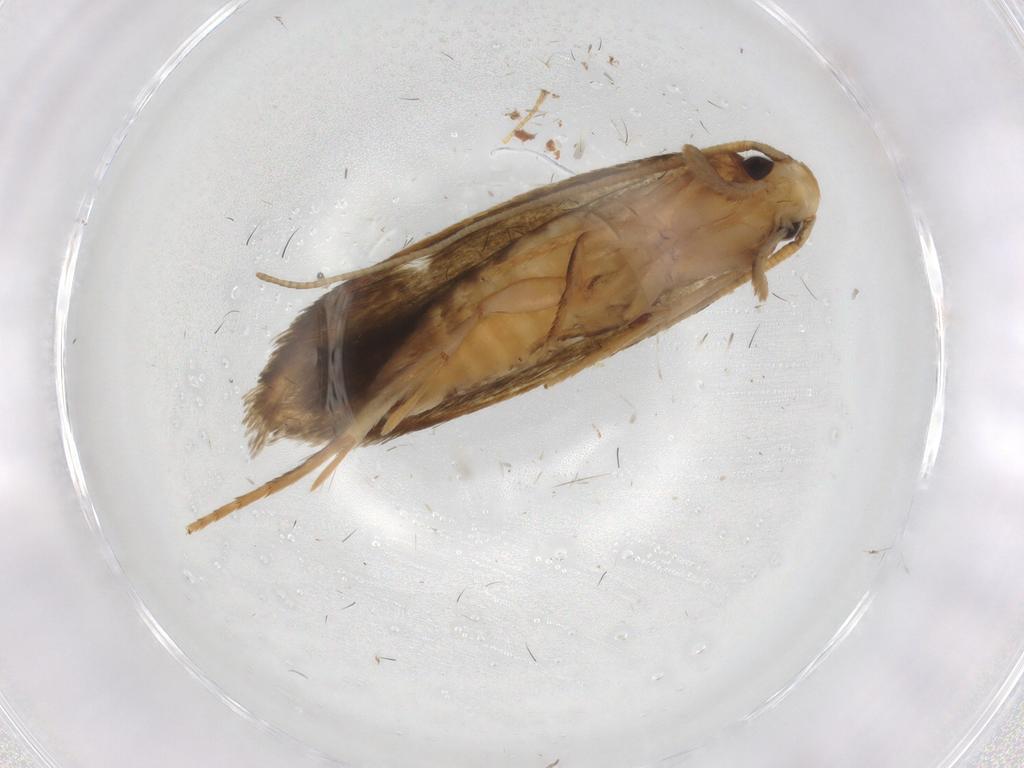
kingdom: Animalia
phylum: Arthropoda
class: Insecta
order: Lepidoptera
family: Tineidae
